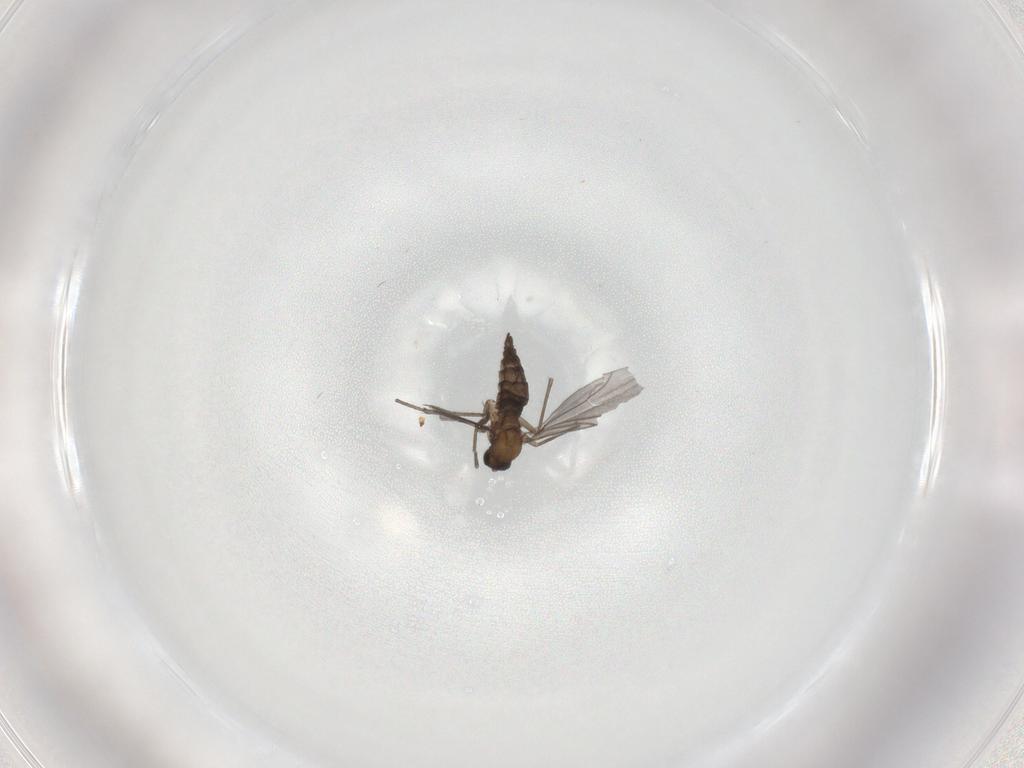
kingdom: Animalia
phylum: Arthropoda
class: Insecta
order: Diptera
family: Sciaridae
